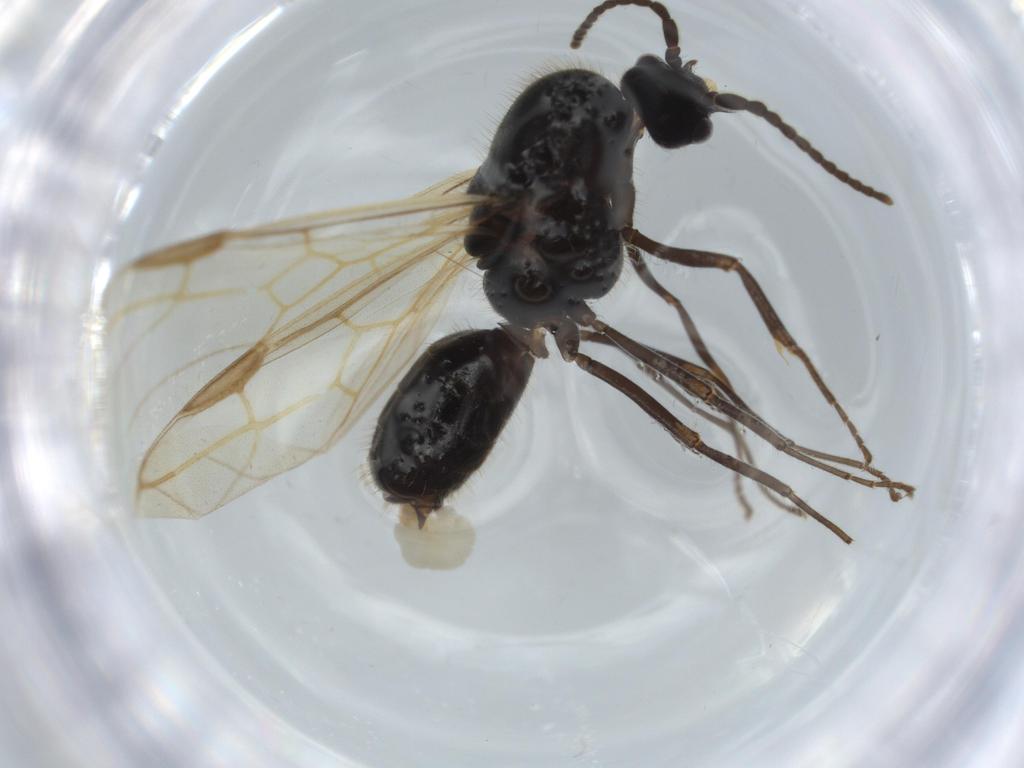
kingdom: Animalia
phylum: Arthropoda
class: Insecta
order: Hymenoptera
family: Formicidae
